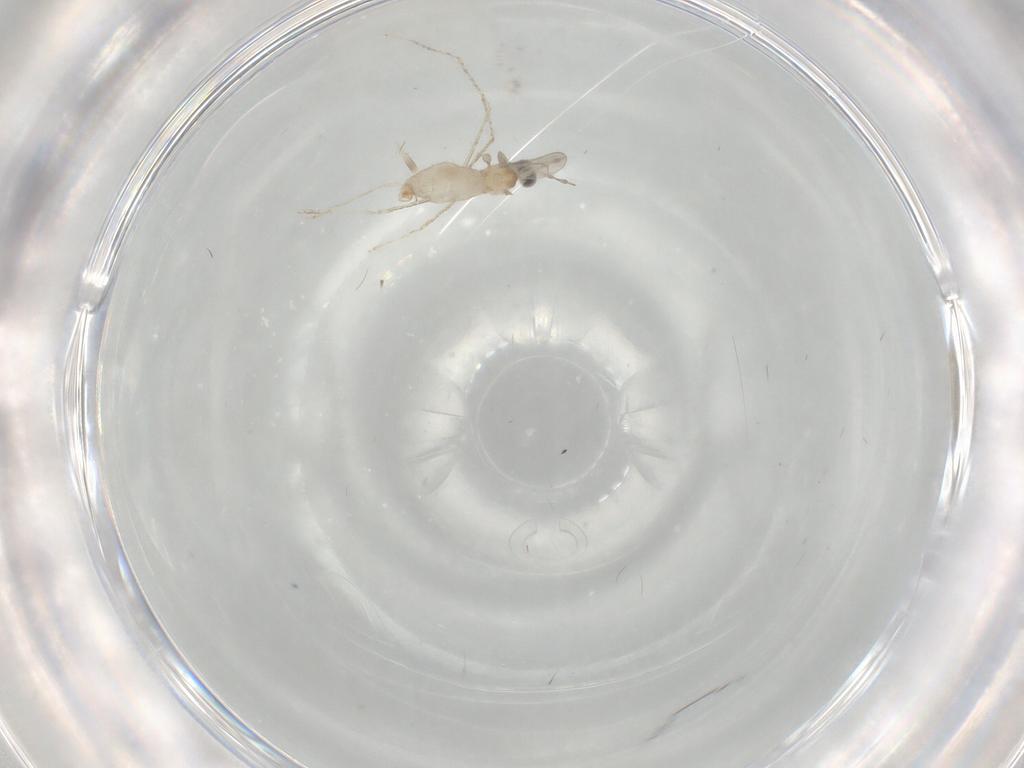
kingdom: Animalia
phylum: Arthropoda
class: Insecta
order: Diptera
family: Cecidomyiidae
